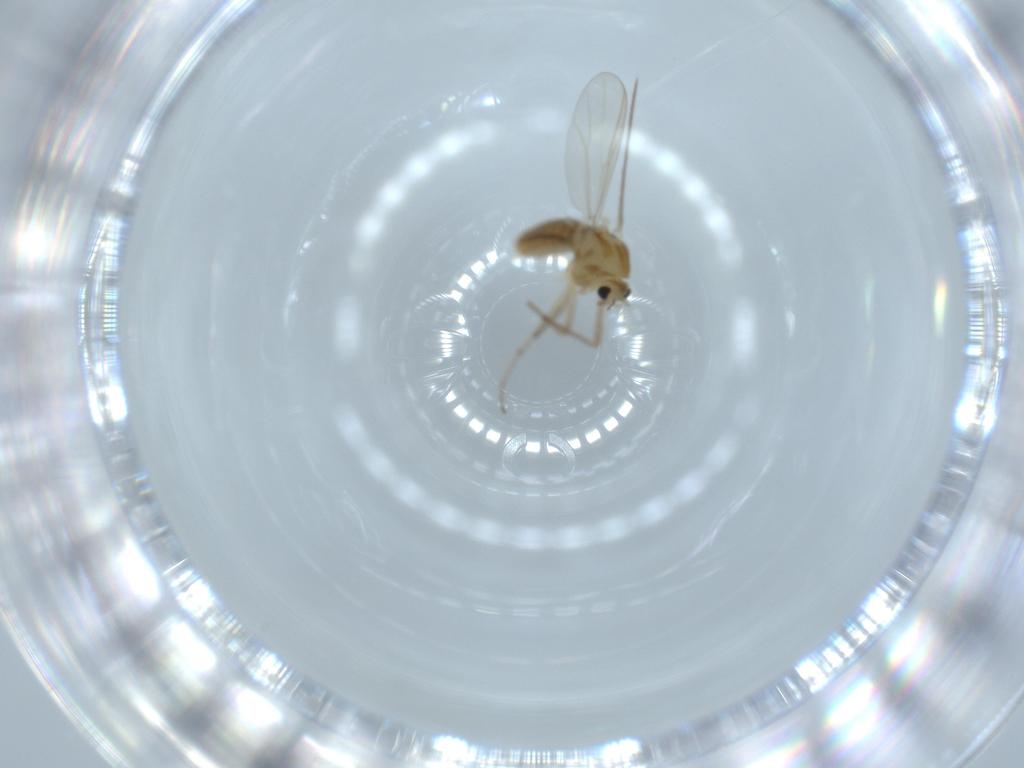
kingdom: Animalia
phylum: Arthropoda
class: Insecta
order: Diptera
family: Chironomidae
